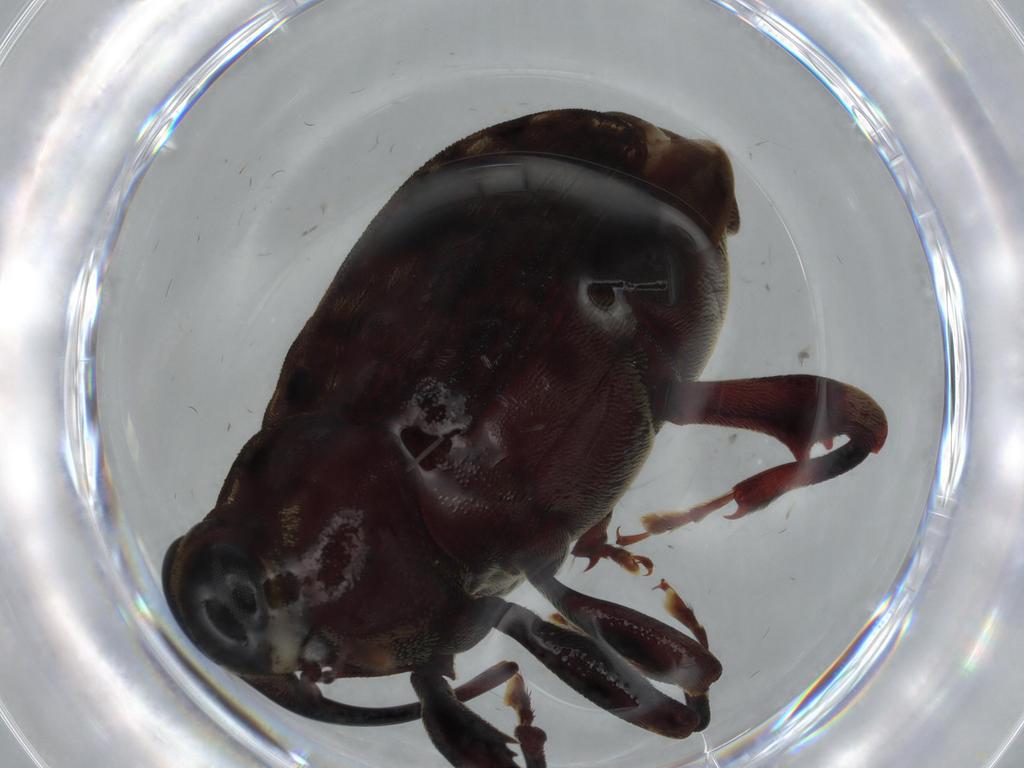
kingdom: Animalia
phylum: Arthropoda
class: Insecta
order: Coleoptera
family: Curculionidae
